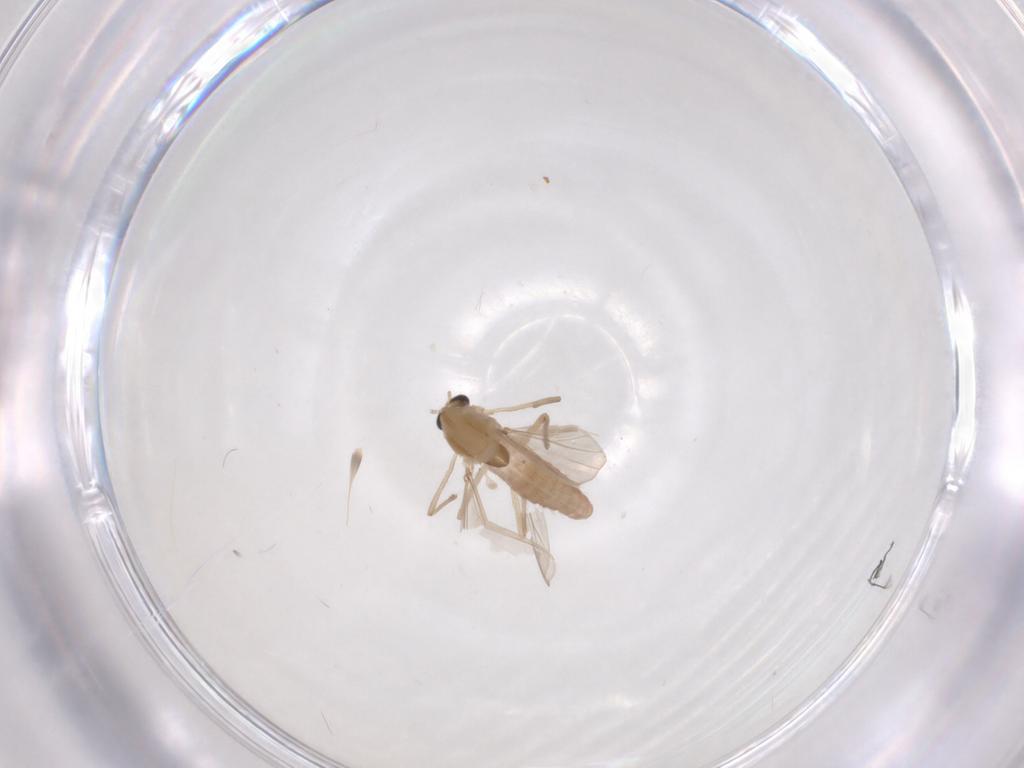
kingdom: Animalia
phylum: Arthropoda
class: Insecta
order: Diptera
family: Chironomidae
